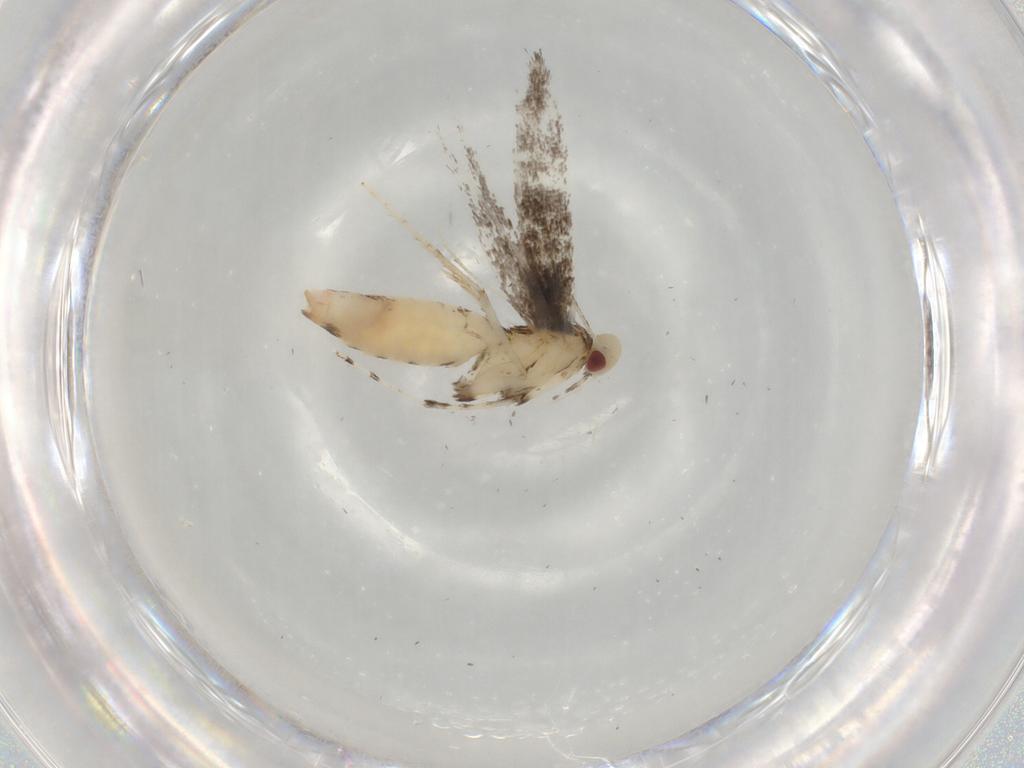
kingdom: Animalia
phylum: Arthropoda
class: Insecta
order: Lepidoptera
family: Gracillariidae
